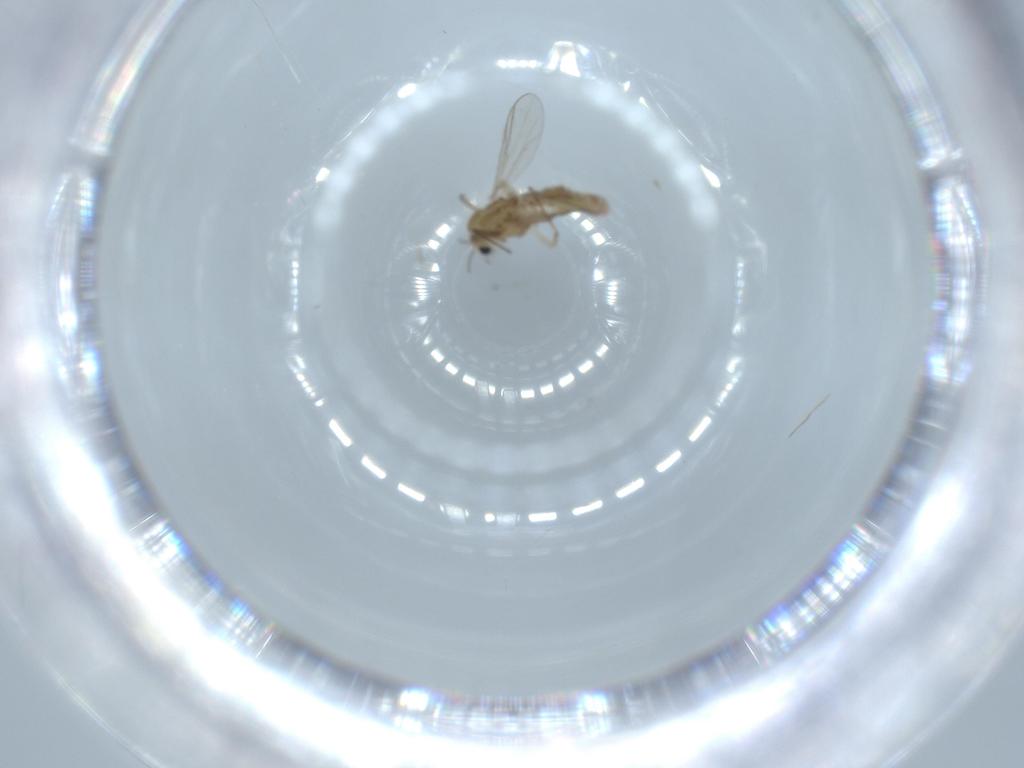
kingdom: Animalia
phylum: Arthropoda
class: Insecta
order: Diptera
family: Chironomidae
